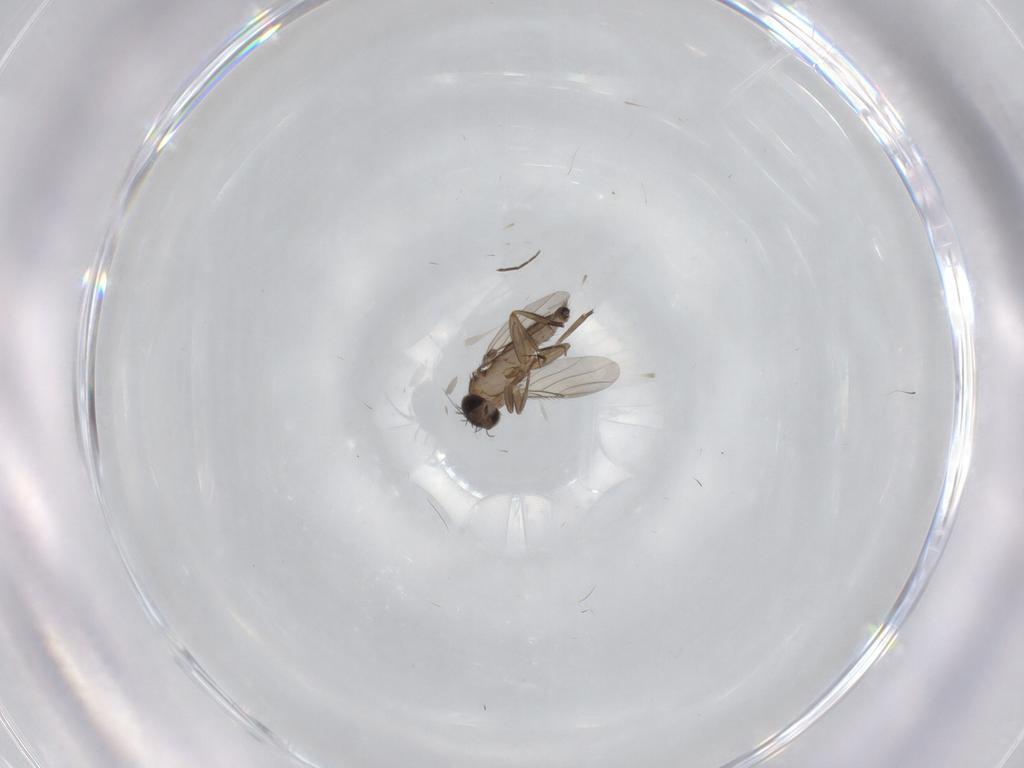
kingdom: Animalia
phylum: Arthropoda
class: Insecta
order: Diptera
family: Phoridae
